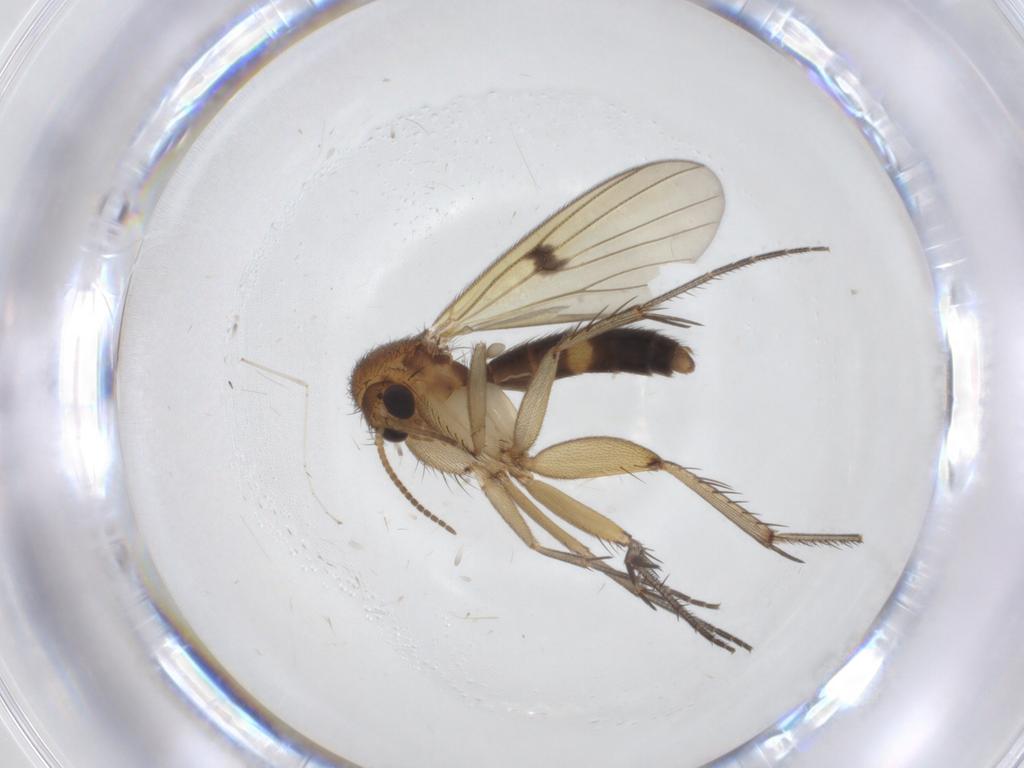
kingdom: Animalia
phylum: Arthropoda
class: Insecta
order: Diptera
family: Mycetophilidae
